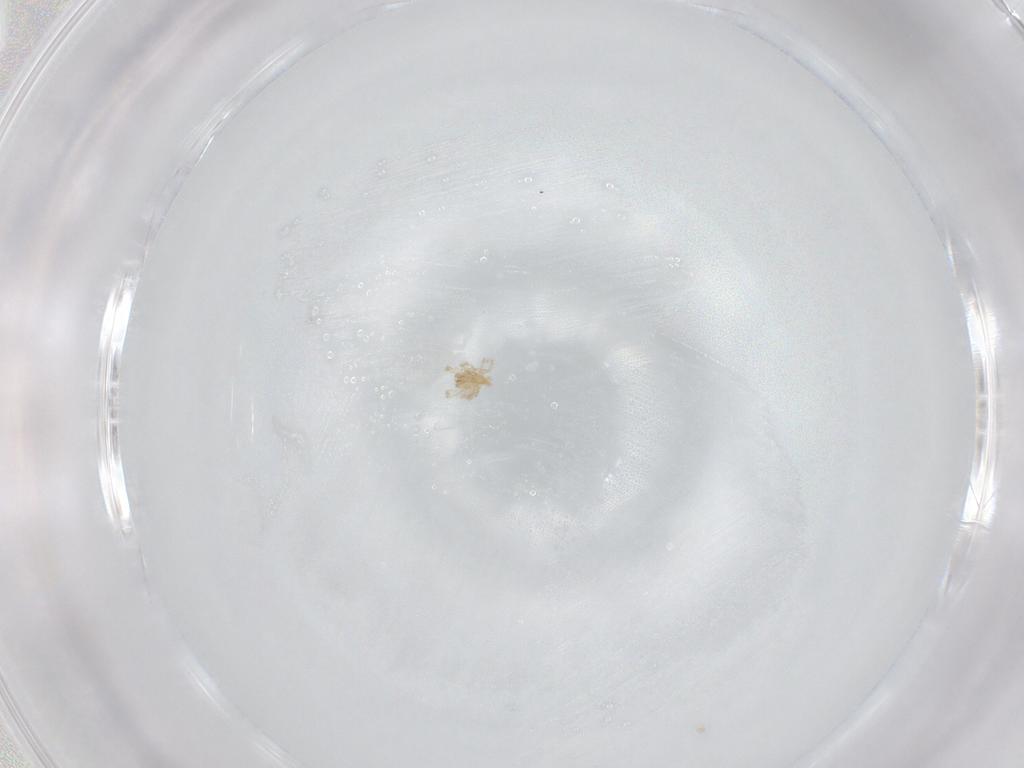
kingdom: Animalia
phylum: Arthropoda
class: Arachnida
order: Trombidiformes
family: Erythraeidae
